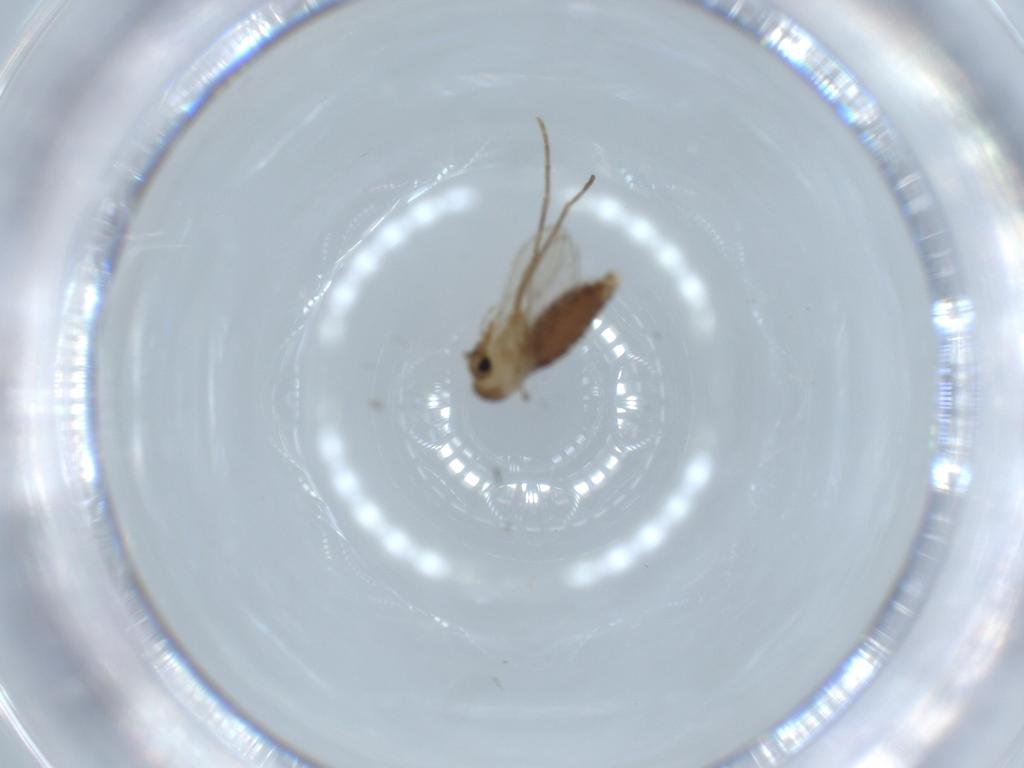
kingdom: Animalia
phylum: Arthropoda
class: Insecta
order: Diptera
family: Psychodidae
